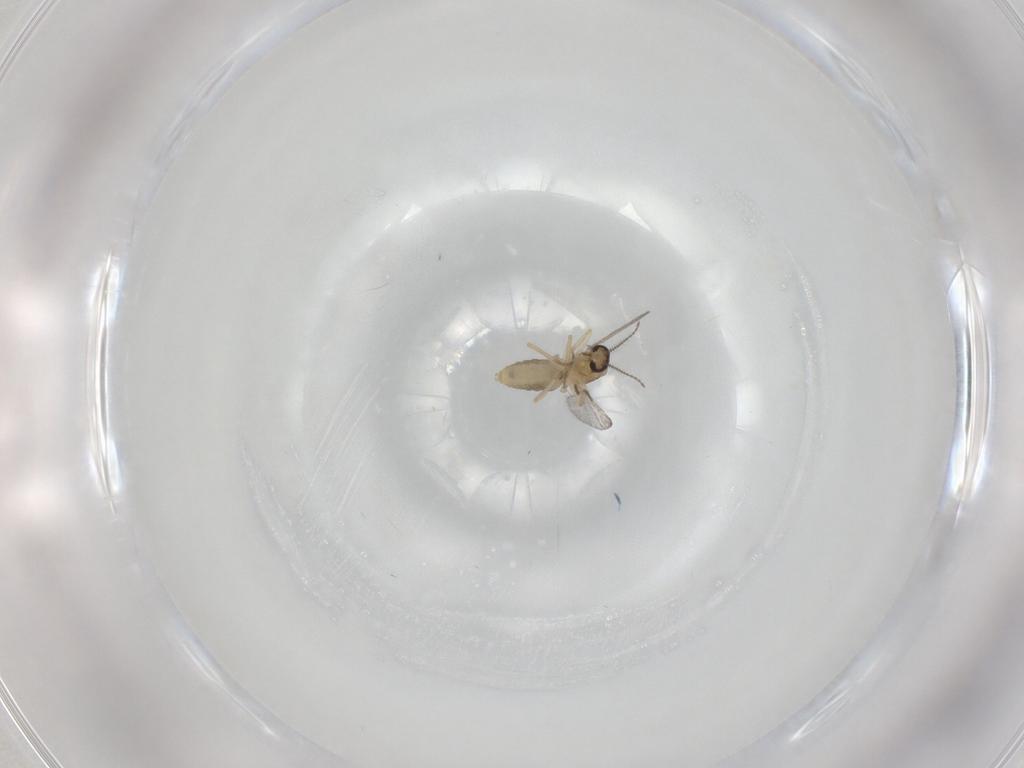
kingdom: Animalia
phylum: Arthropoda
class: Insecta
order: Diptera
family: Ceratopogonidae
